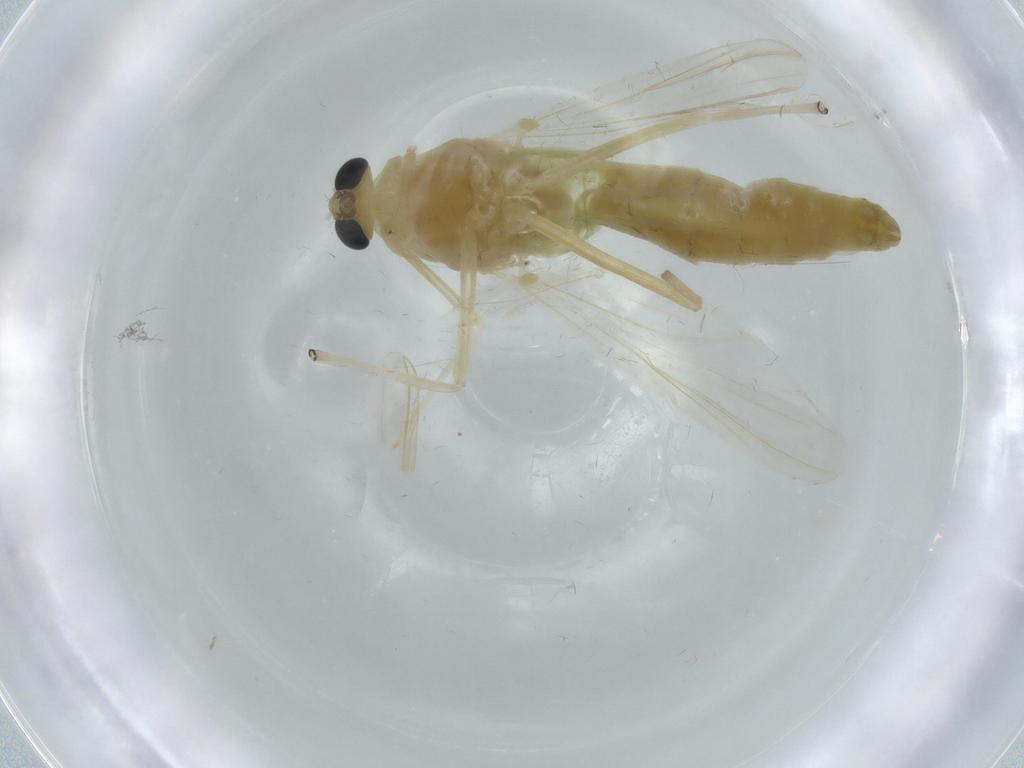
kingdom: Animalia
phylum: Arthropoda
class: Insecta
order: Diptera
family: Chironomidae
